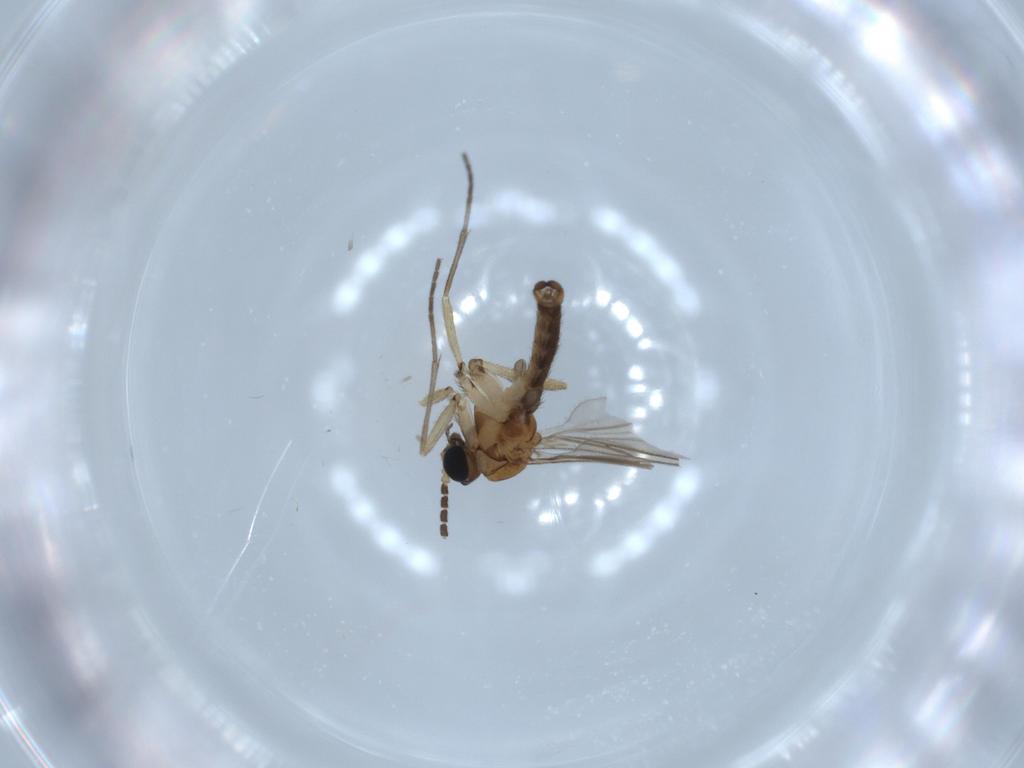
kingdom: Animalia
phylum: Arthropoda
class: Insecta
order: Diptera
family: Sciaridae
